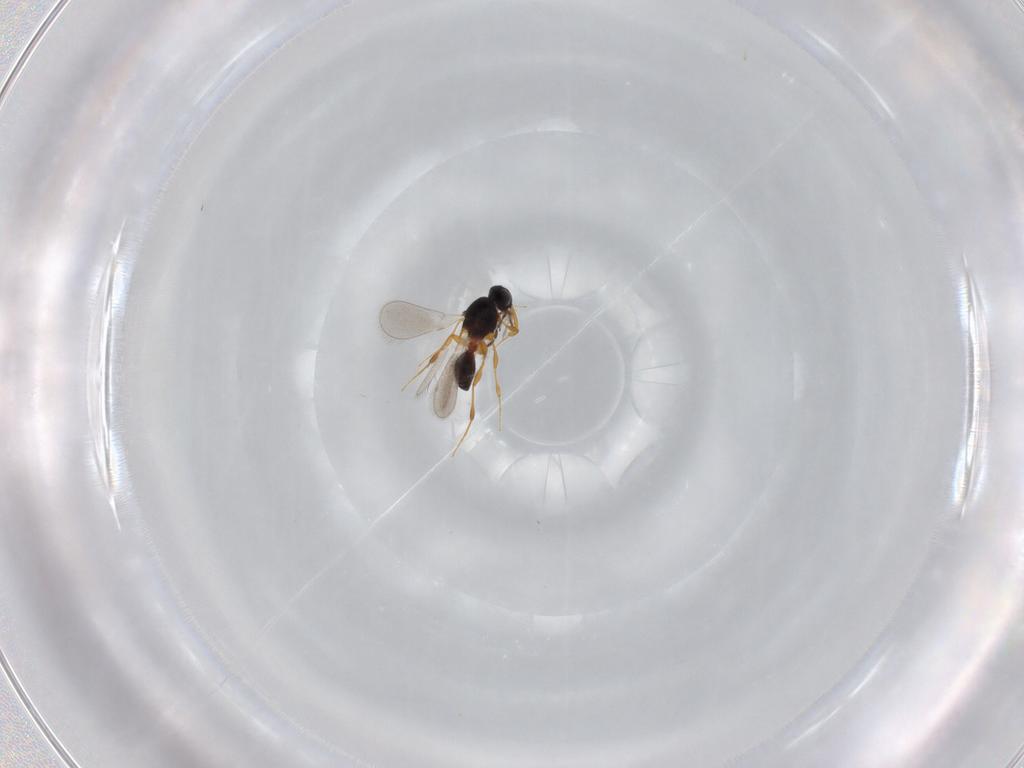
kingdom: Animalia
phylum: Arthropoda
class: Insecta
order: Hymenoptera
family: Platygastridae
